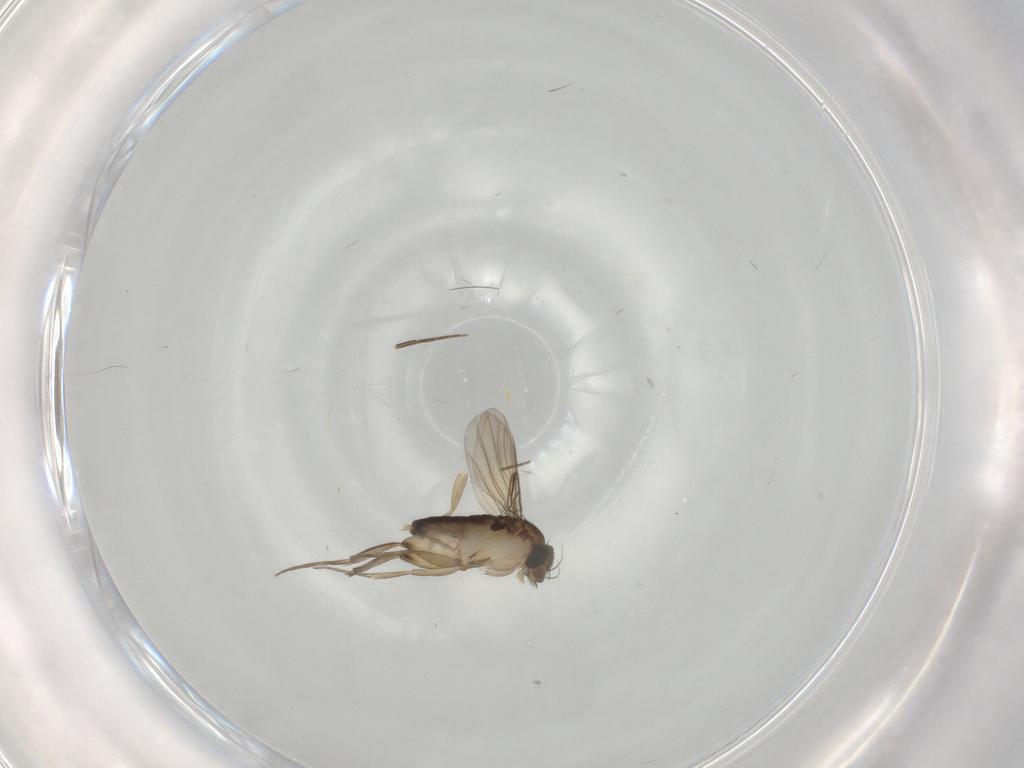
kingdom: Animalia
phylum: Arthropoda
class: Insecta
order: Diptera
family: Phoridae
